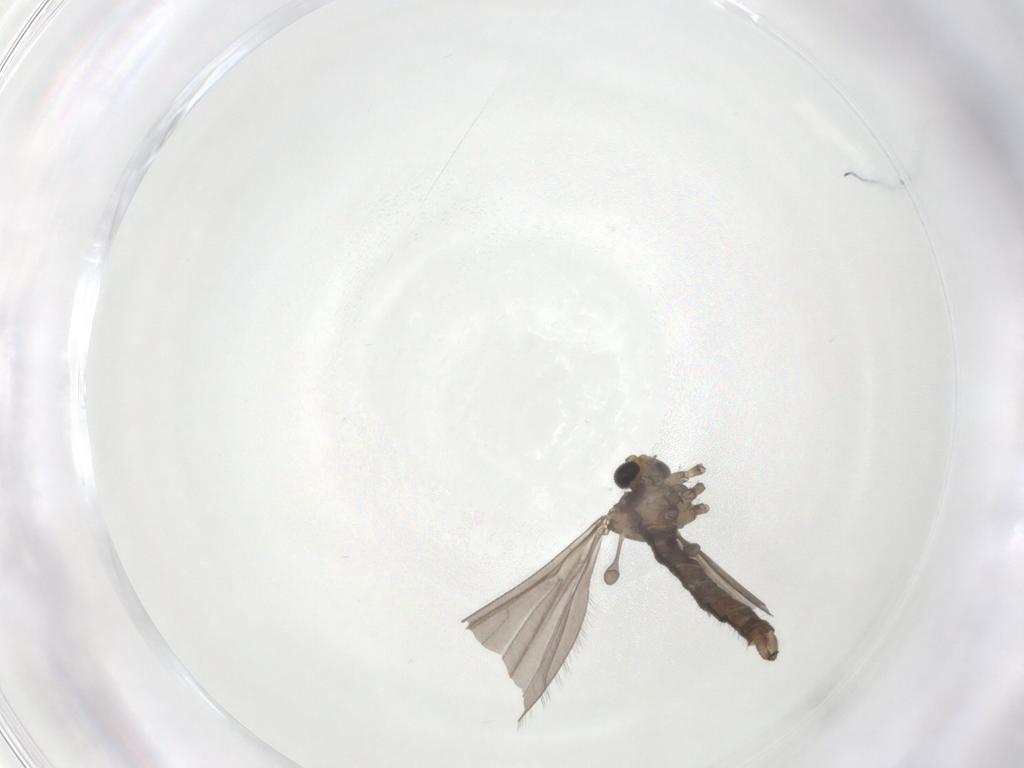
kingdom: Animalia
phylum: Arthropoda
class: Insecta
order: Diptera
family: Limoniidae
